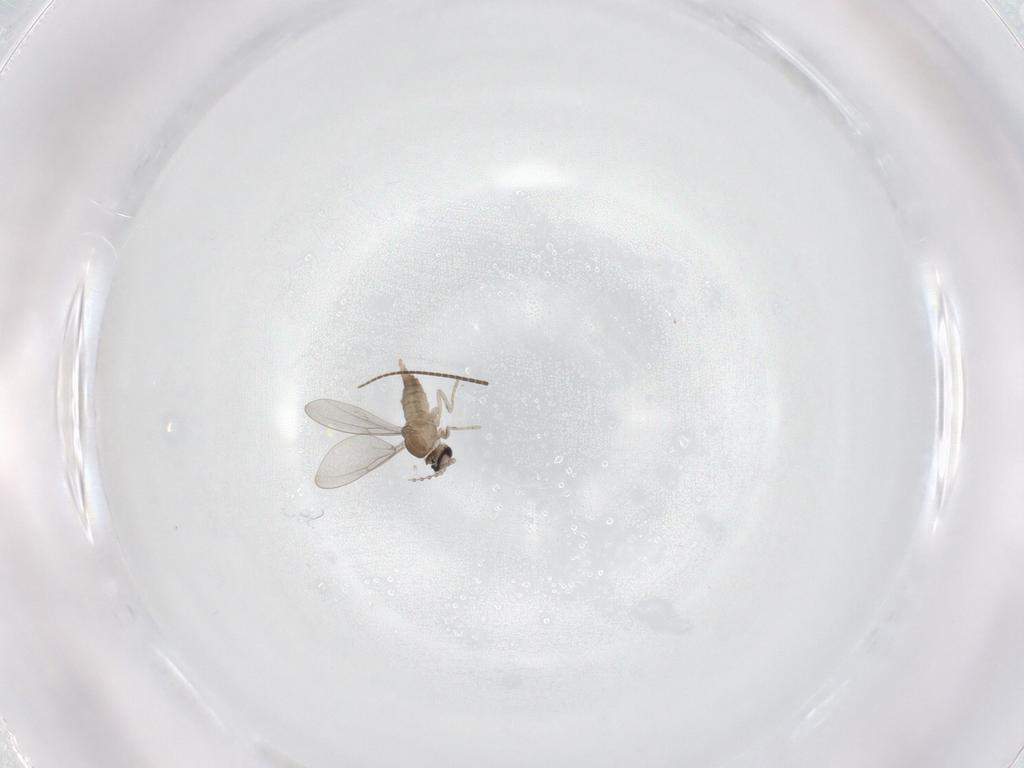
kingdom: Animalia
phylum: Arthropoda
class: Insecta
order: Diptera
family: Cecidomyiidae
